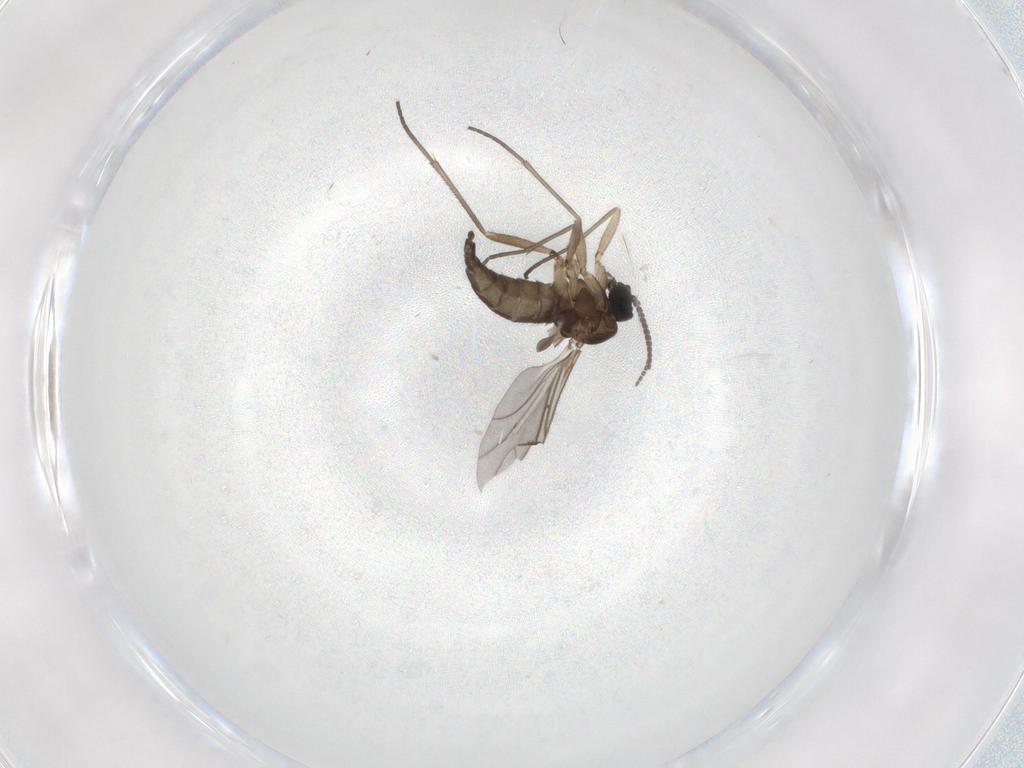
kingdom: Animalia
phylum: Arthropoda
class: Insecta
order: Diptera
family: Sciaridae
